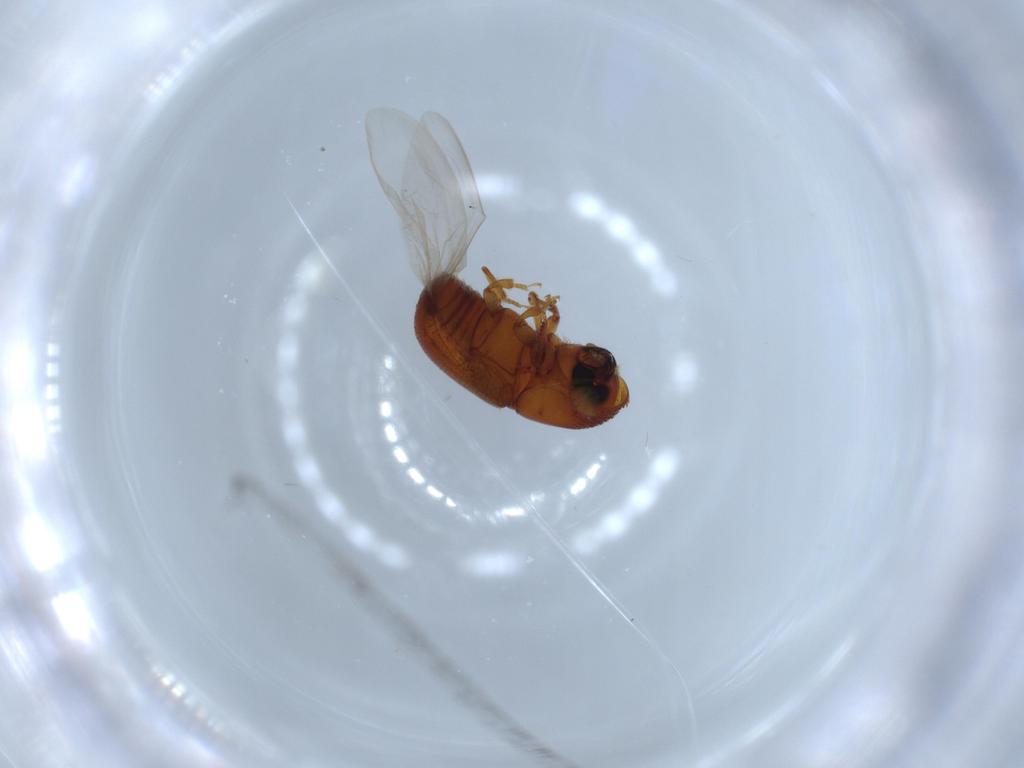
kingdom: Animalia
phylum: Arthropoda
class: Insecta
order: Coleoptera
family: Curculionidae
